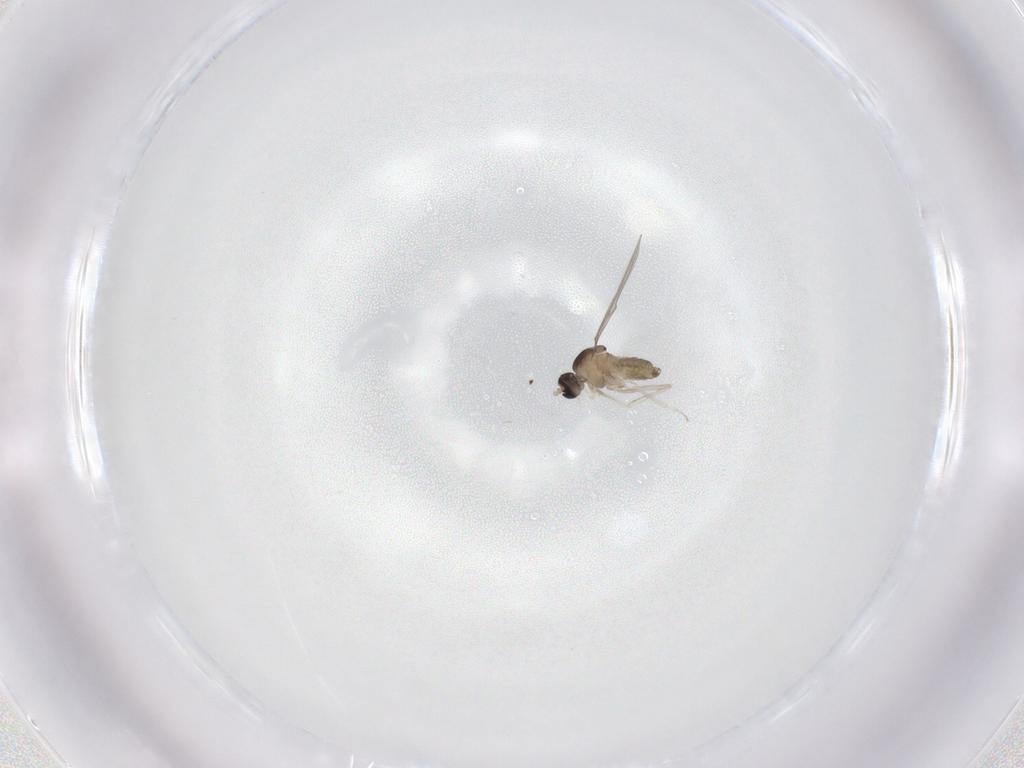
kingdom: Animalia
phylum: Arthropoda
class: Insecta
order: Diptera
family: Cecidomyiidae
